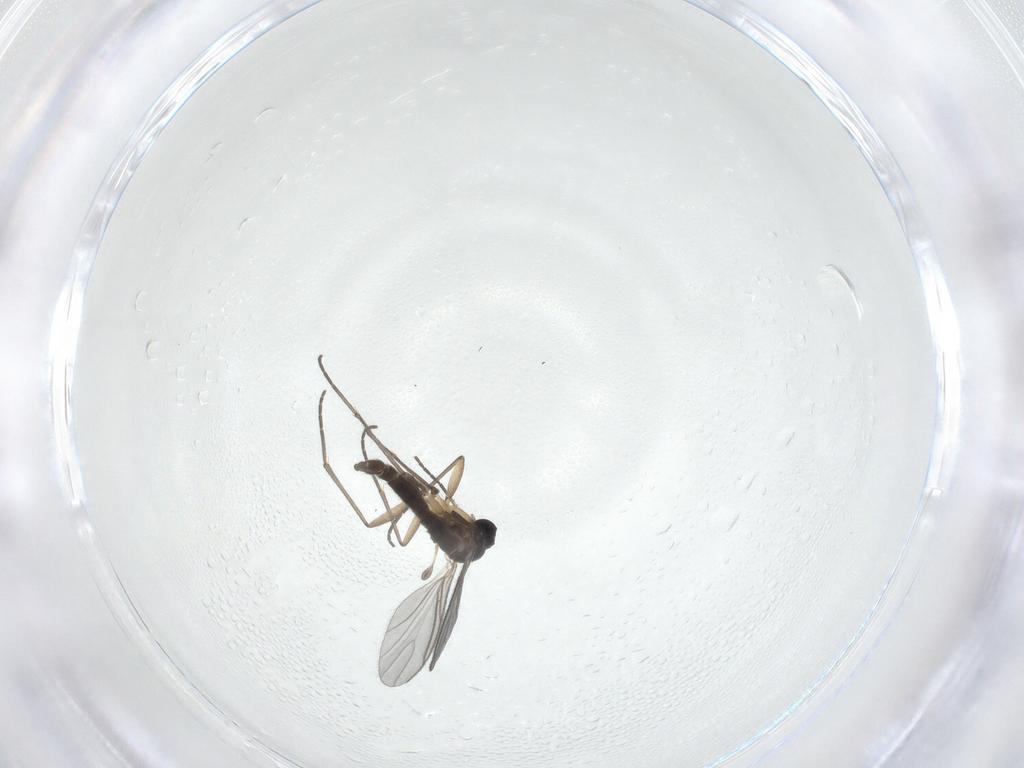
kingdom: Animalia
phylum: Arthropoda
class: Insecta
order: Diptera
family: Sciaridae
